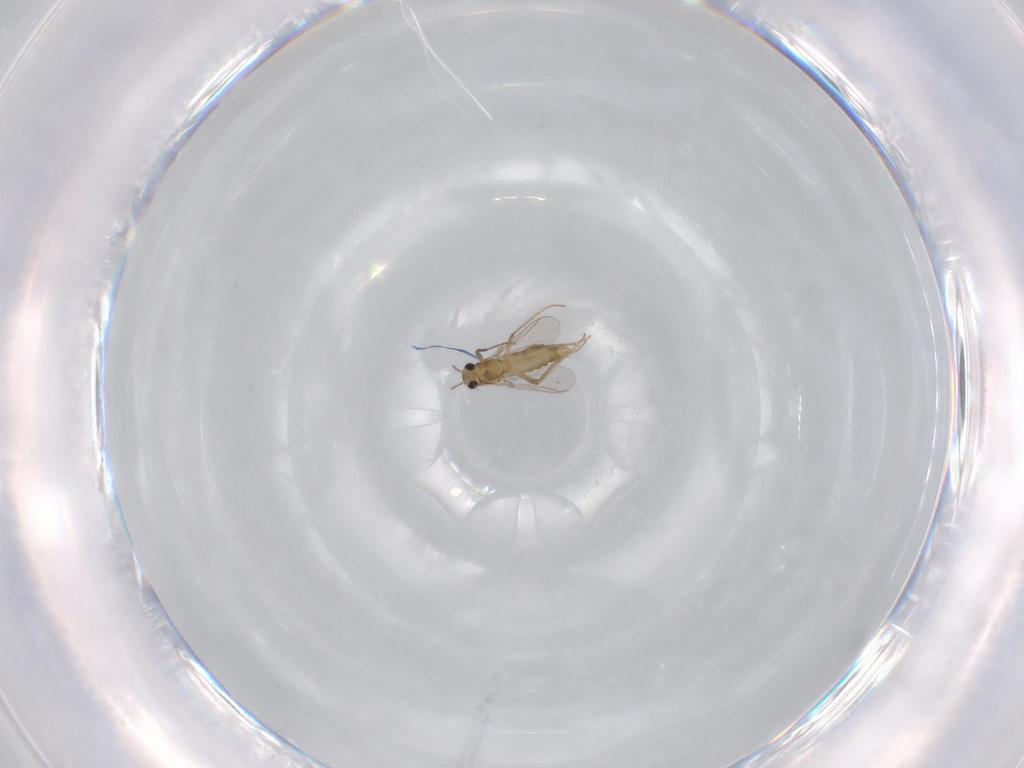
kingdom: Animalia
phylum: Arthropoda
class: Insecta
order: Diptera
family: Chironomidae
